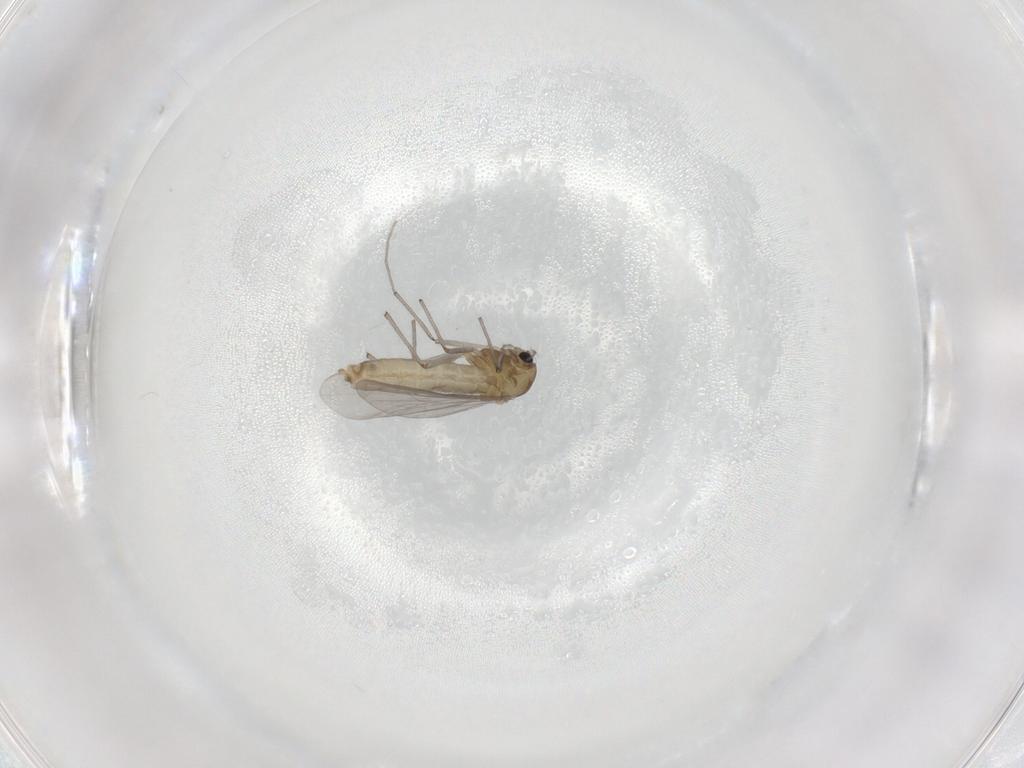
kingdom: Animalia
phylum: Arthropoda
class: Insecta
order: Diptera
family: Chironomidae
